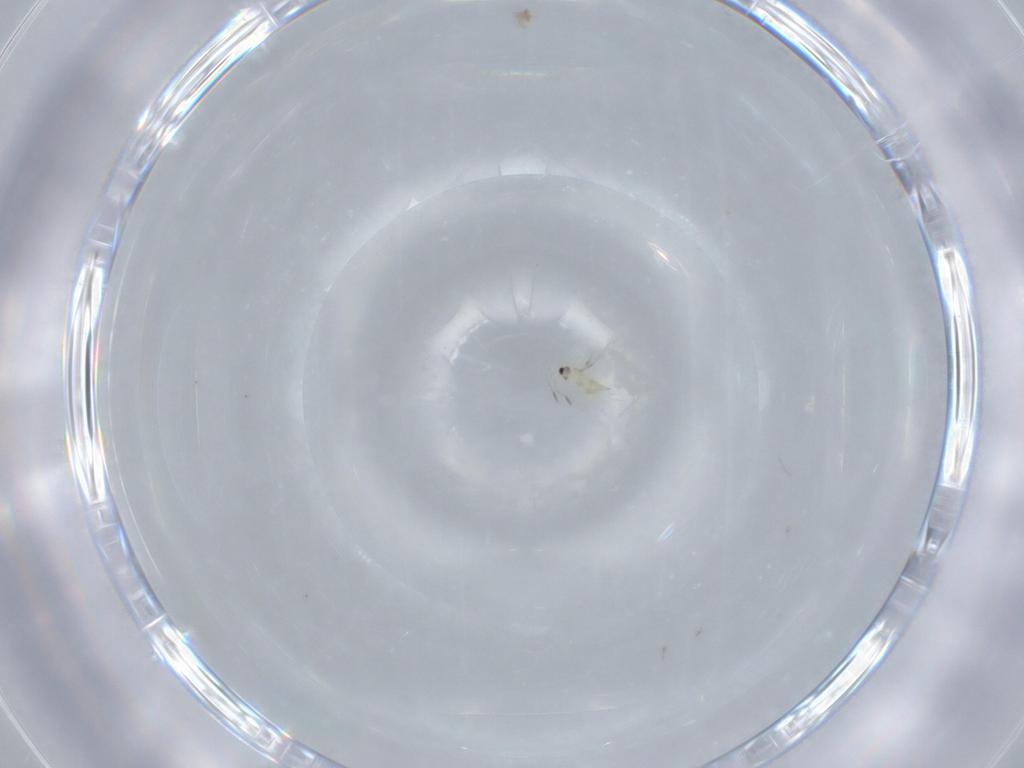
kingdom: Animalia
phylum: Arthropoda
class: Insecta
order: Hymenoptera
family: Mymaridae
